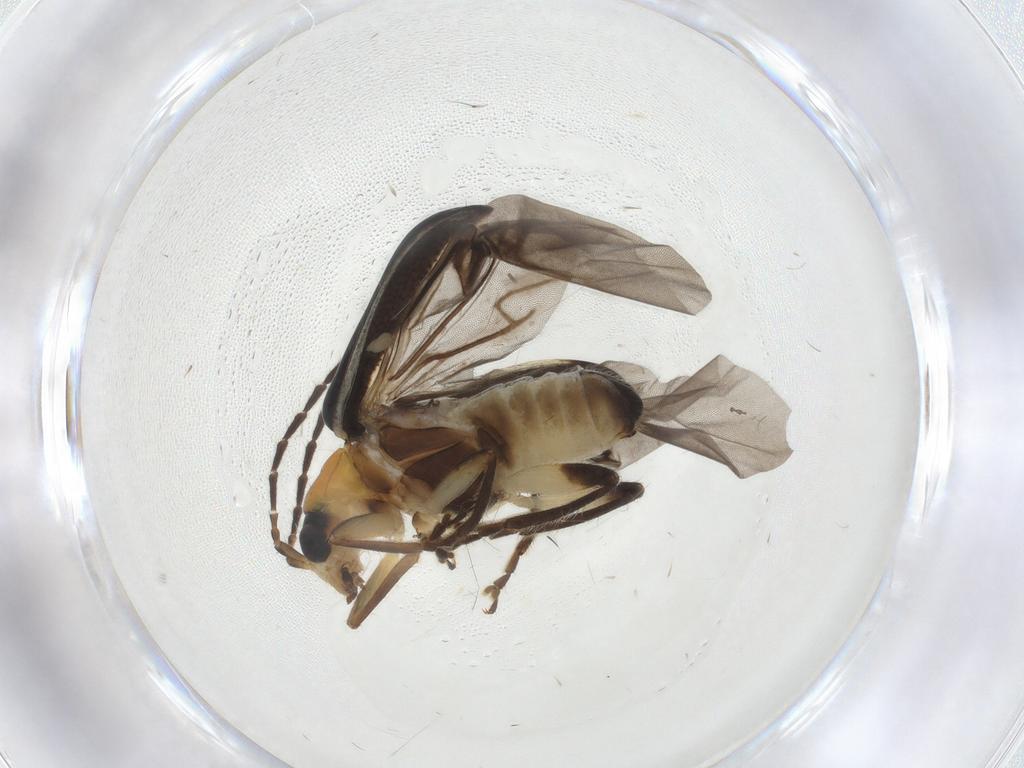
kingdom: Animalia
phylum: Arthropoda
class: Insecta
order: Coleoptera
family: Chrysomelidae
